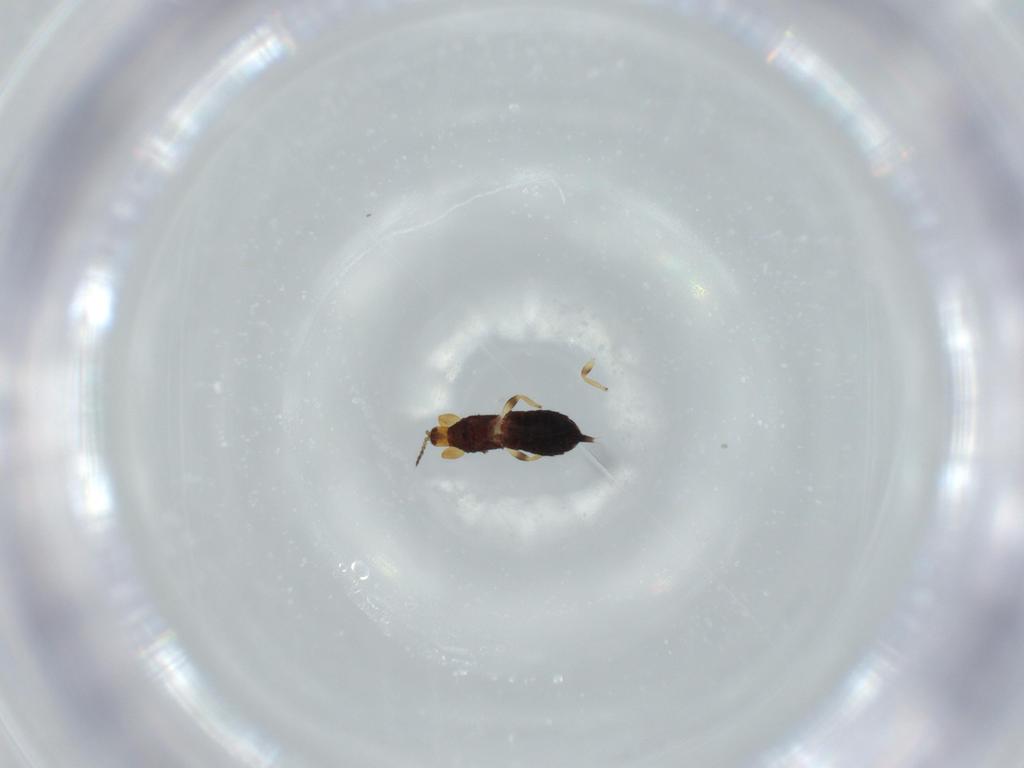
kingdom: Animalia
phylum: Arthropoda
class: Insecta
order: Thysanoptera
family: Phlaeothripidae
